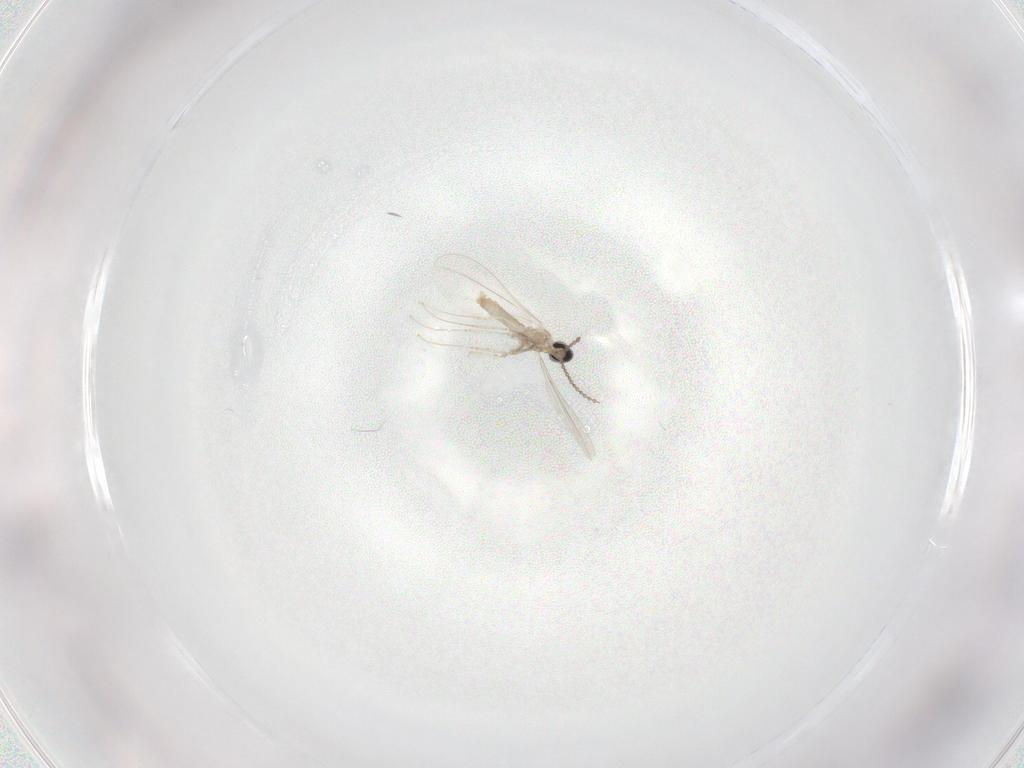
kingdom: Animalia
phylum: Arthropoda
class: Insecta
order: Diptera
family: Cecidomyiidae
